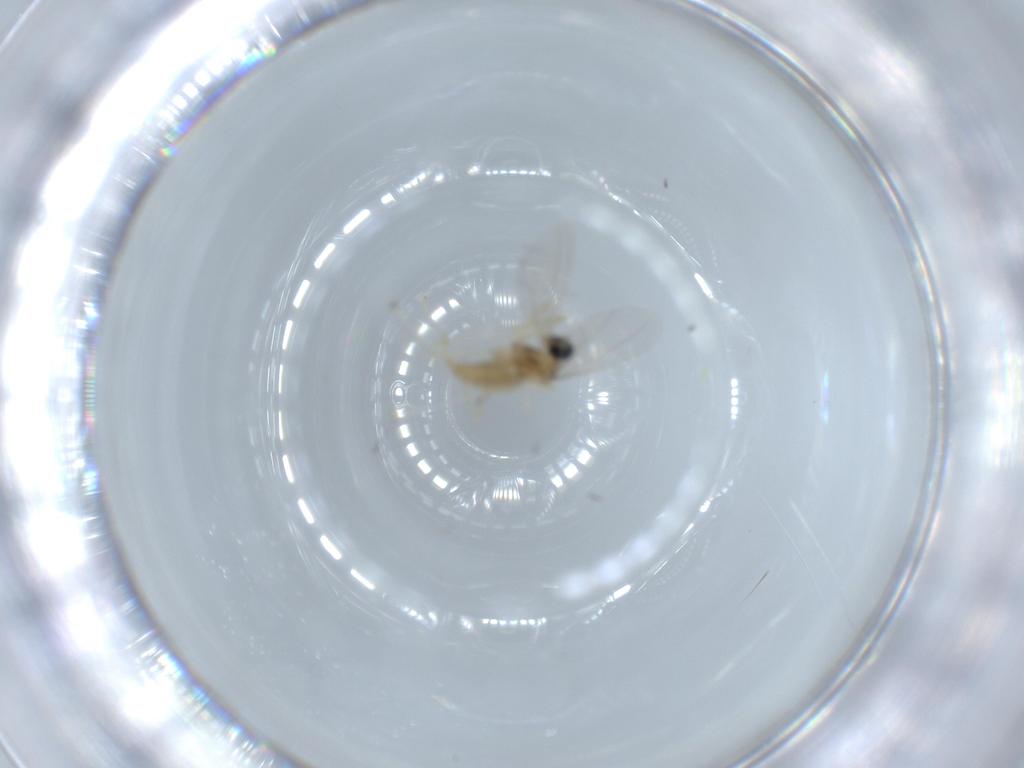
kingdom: Animalia
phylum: Arthropoda
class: Insecta
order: Diptera
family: Cecidomyiidae
